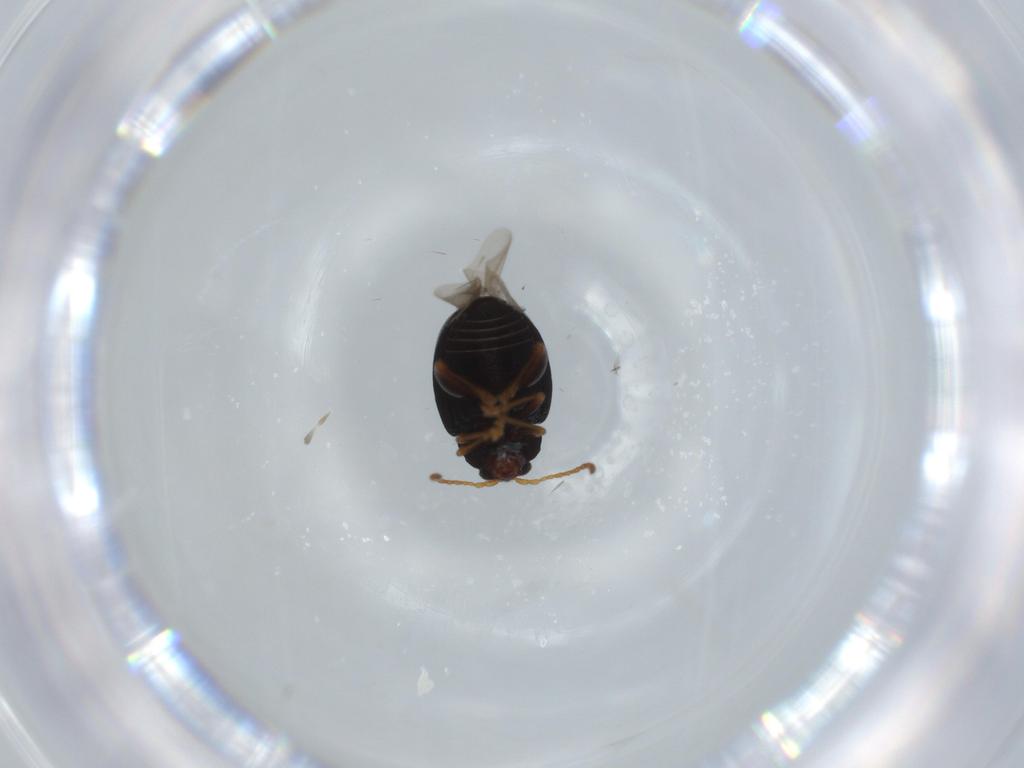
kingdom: Animalia
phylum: Arthropoda
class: Insecta
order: Coleoptera
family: Chrysomelidae
